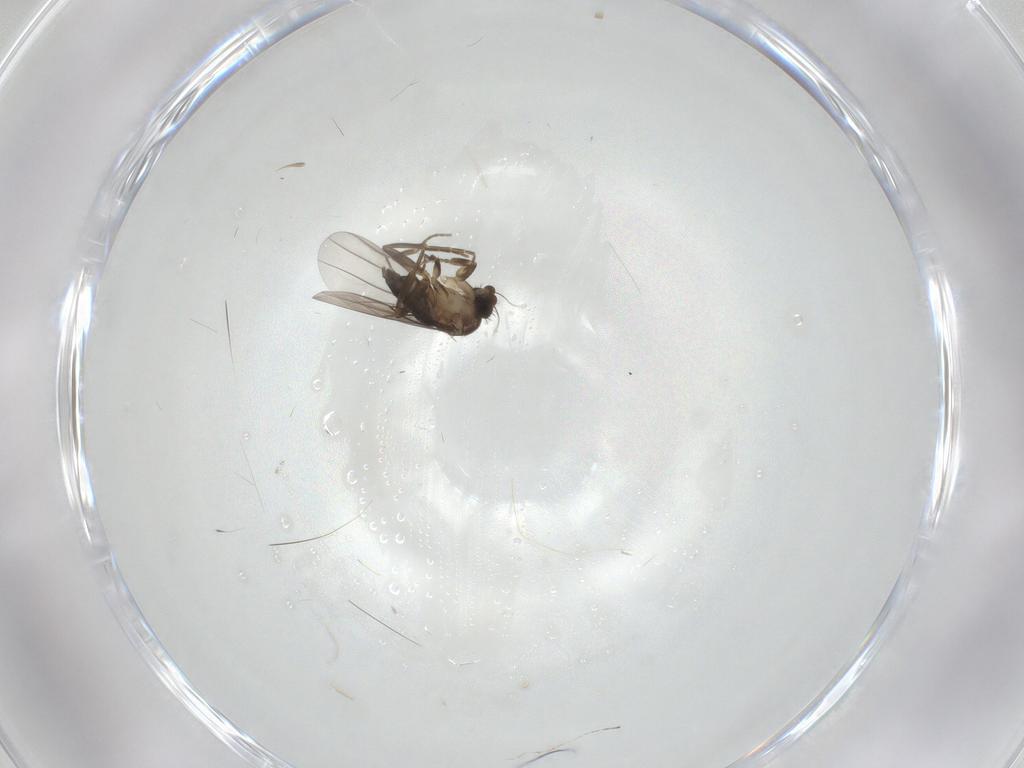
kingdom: Animalia
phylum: Arthropoda
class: Insecta
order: Diptera
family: Phoridae
